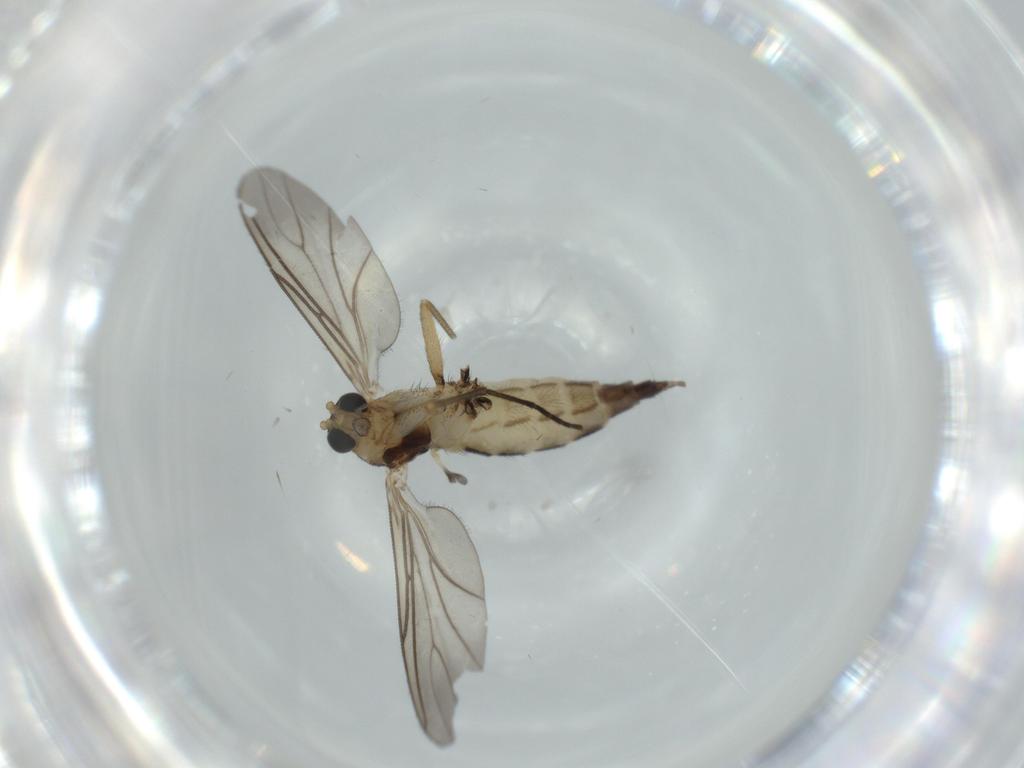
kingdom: Animalia
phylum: Arthropoda
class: Insecta
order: Diptera
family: Sciaridae
